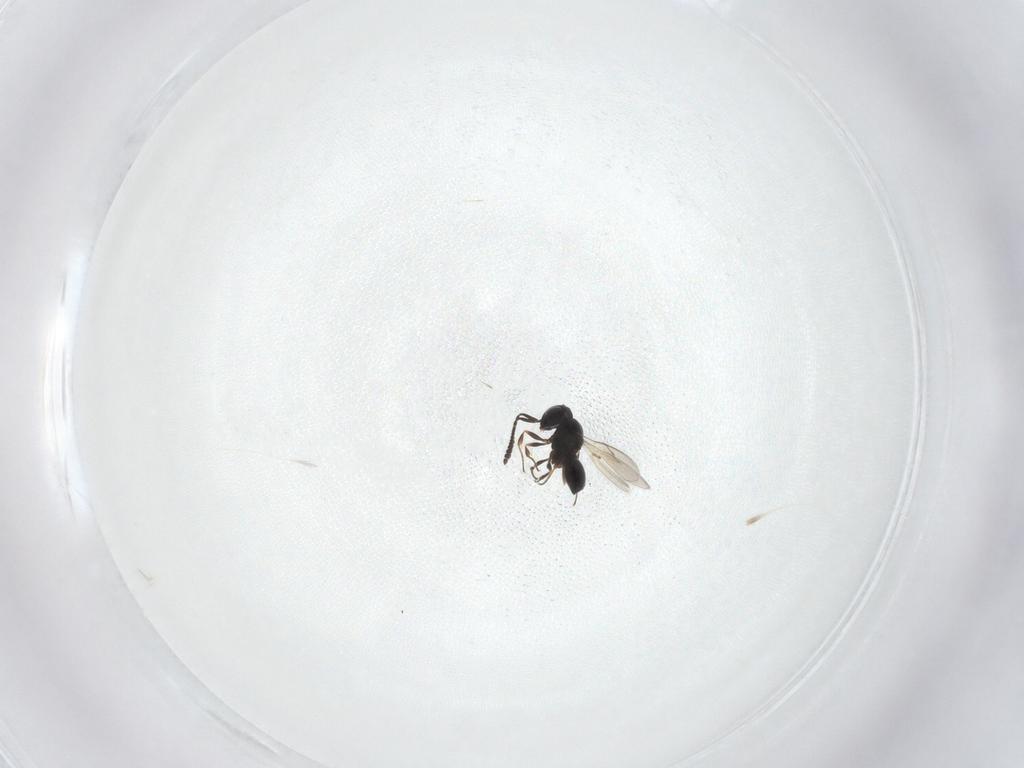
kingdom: Animalia
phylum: Arthropoda
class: Insecta
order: Hymenoptera
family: Scelionidae
